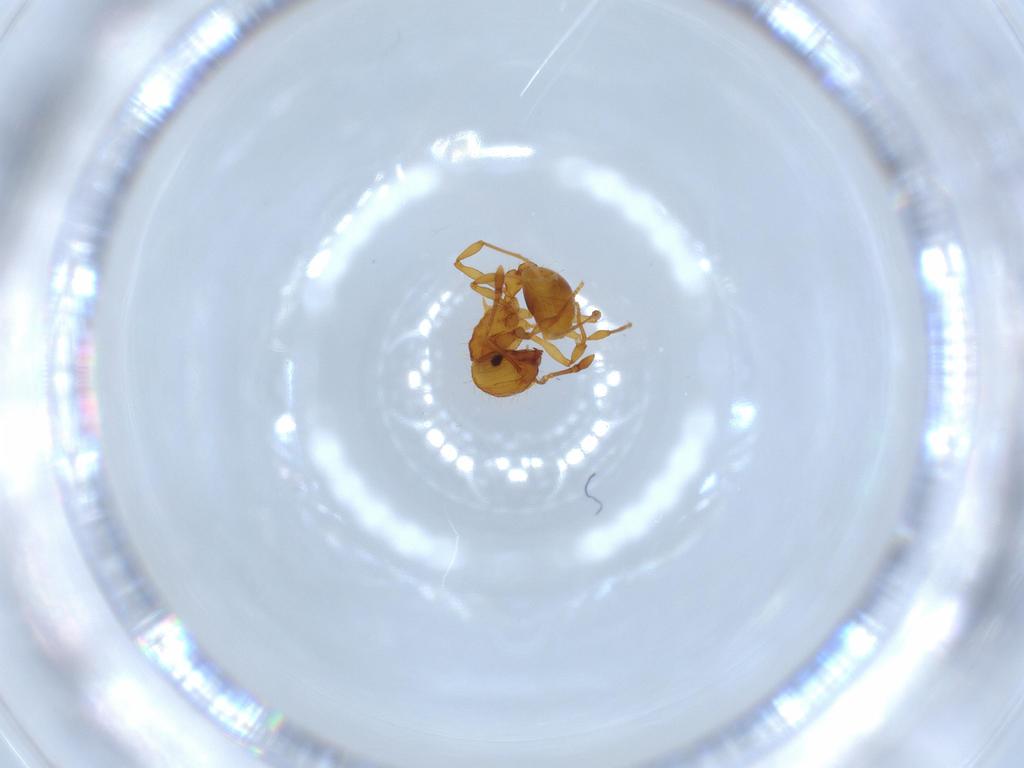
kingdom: Animalia
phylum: Arthropoda
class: Insecta
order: Hymenoptera
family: Formicidae
